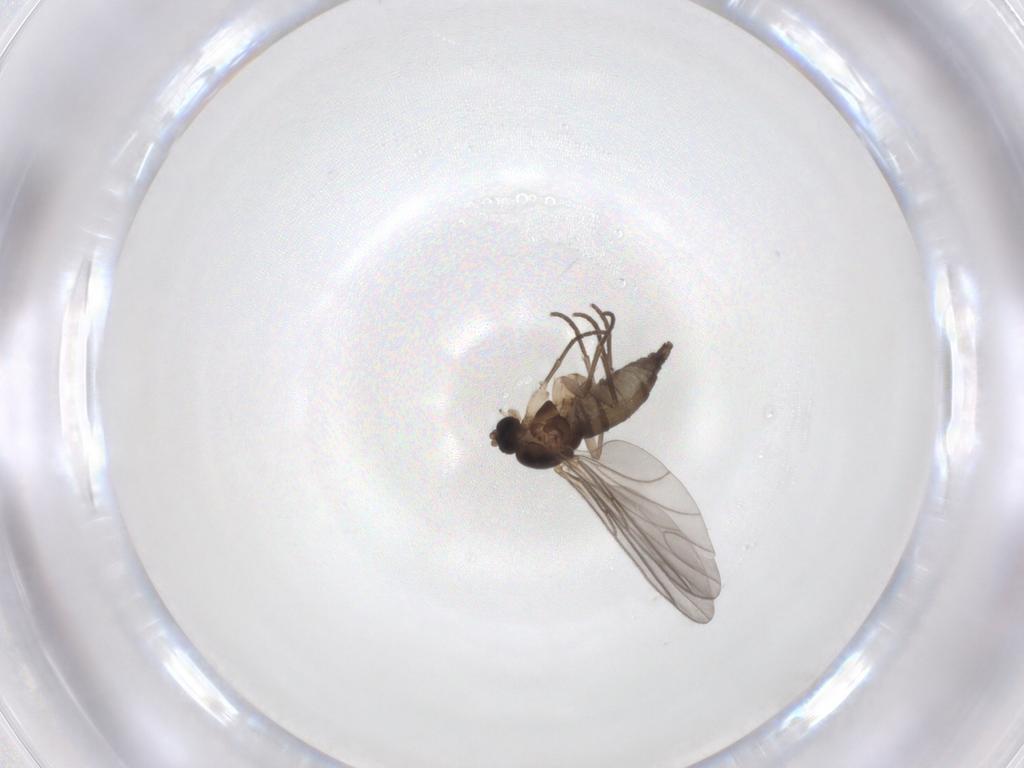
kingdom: Animalia
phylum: Arthropoda
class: Insecta
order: Diptera
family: Sciaridae
